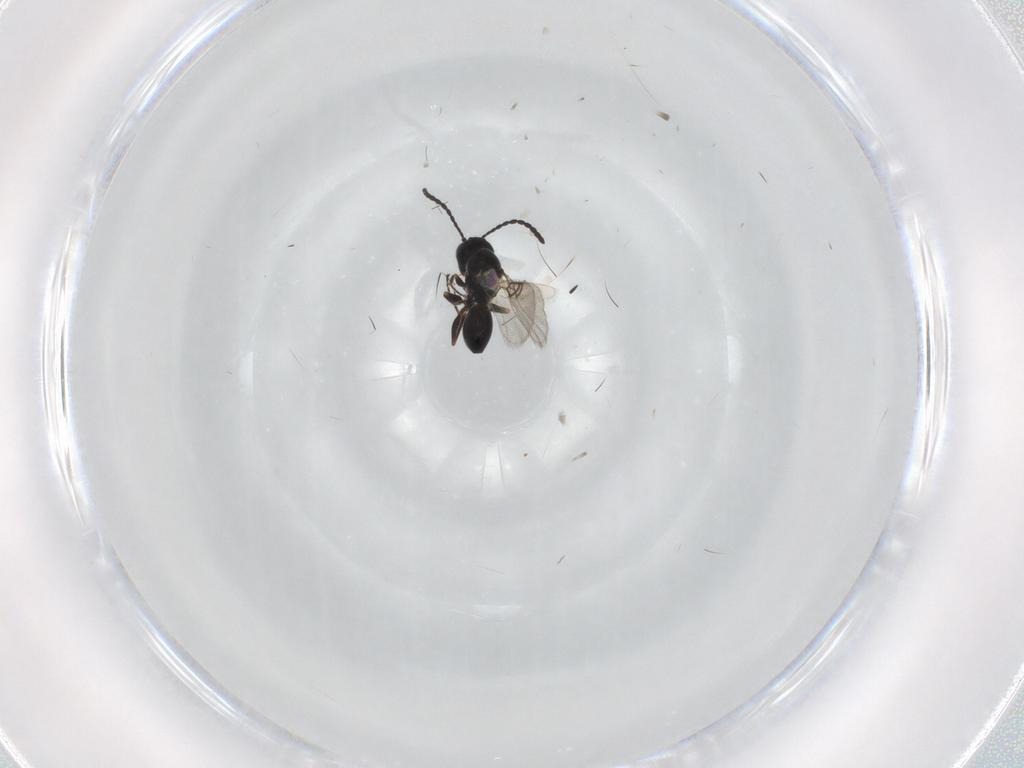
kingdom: Animalia
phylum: Arthropoda
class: Insecta
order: Hymenoptera
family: Figitidae
